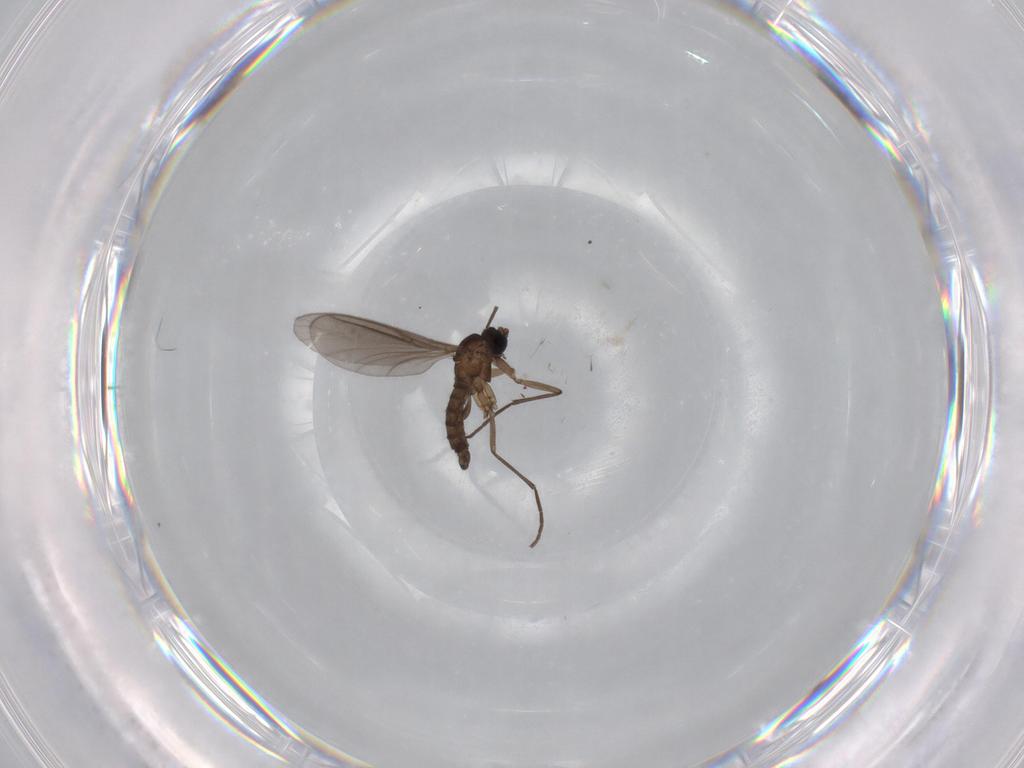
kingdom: Animalia
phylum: Arthropoda
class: Insecta
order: Diptera
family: Sciaridae
